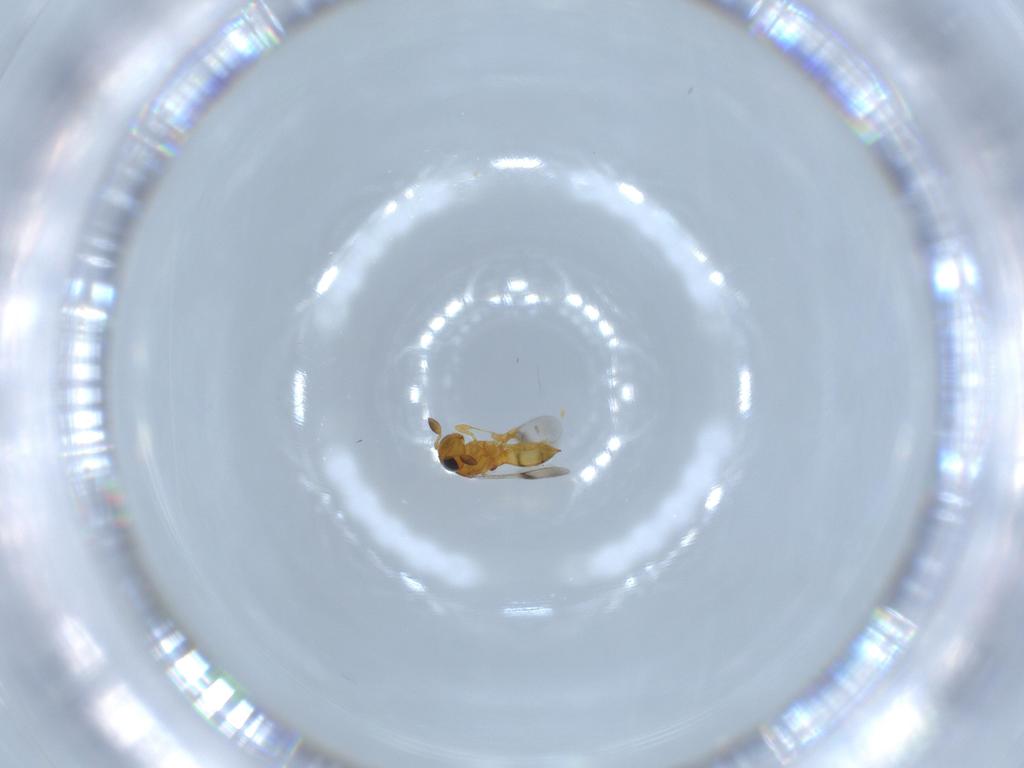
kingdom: Animalia
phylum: Arthropoda
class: Insecta
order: Hymenoptera
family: Scelionidae
